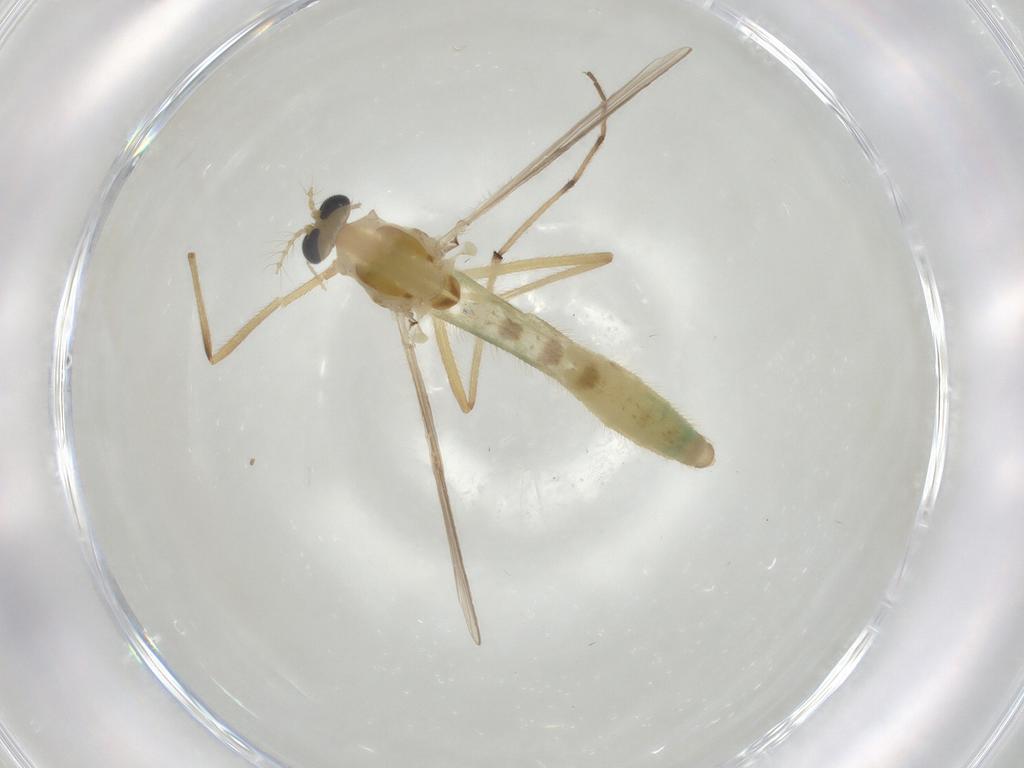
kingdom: Animalia
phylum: Arthropoda
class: Insecta
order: Diptera
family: Chironomidae
